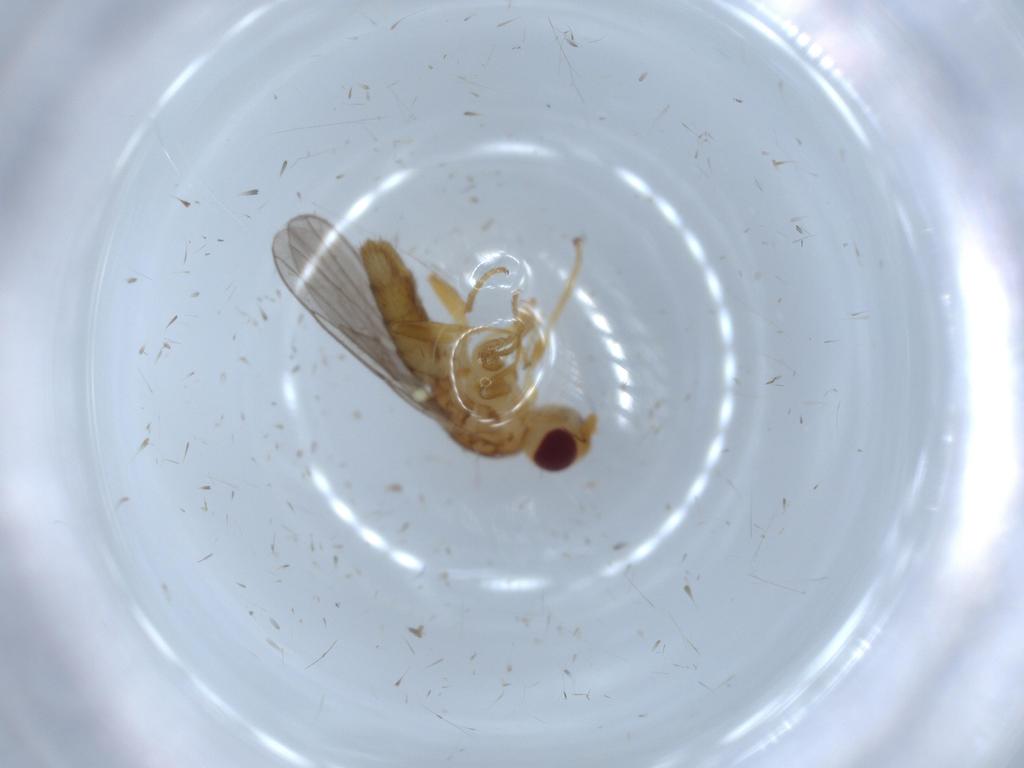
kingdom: Animalia
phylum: Arthropoda
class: Insecta
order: Diptera
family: Chloropidae
